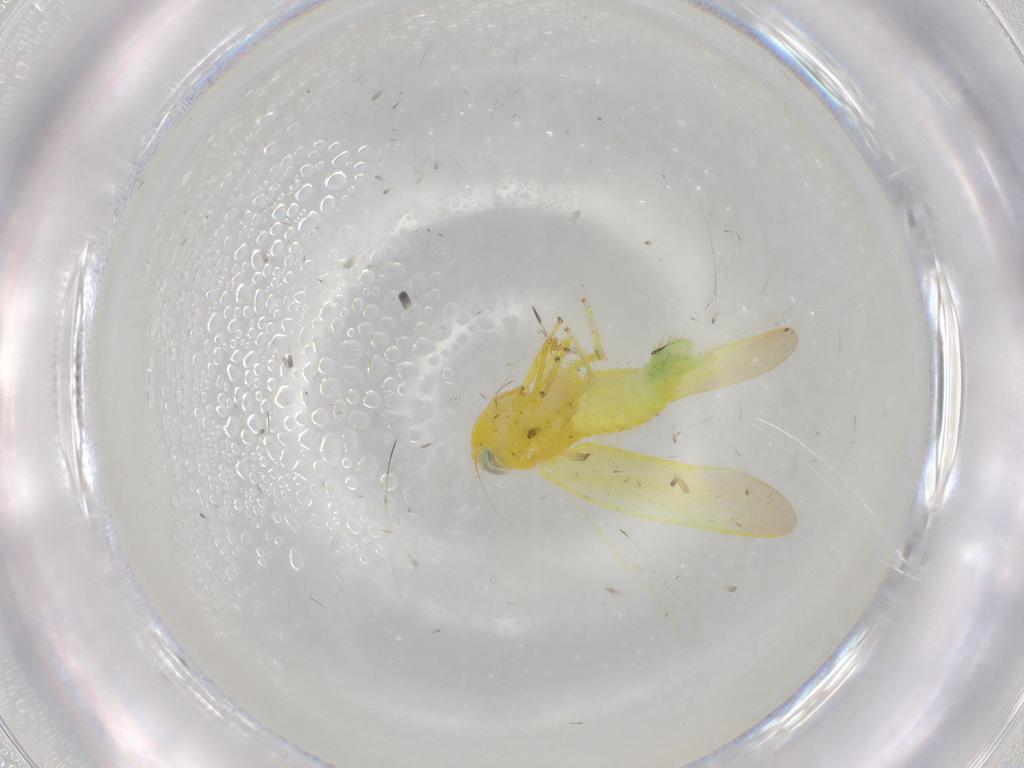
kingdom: Animalia
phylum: Arthropoda
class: Insecta
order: Hemiptera
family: Cicadellidae
